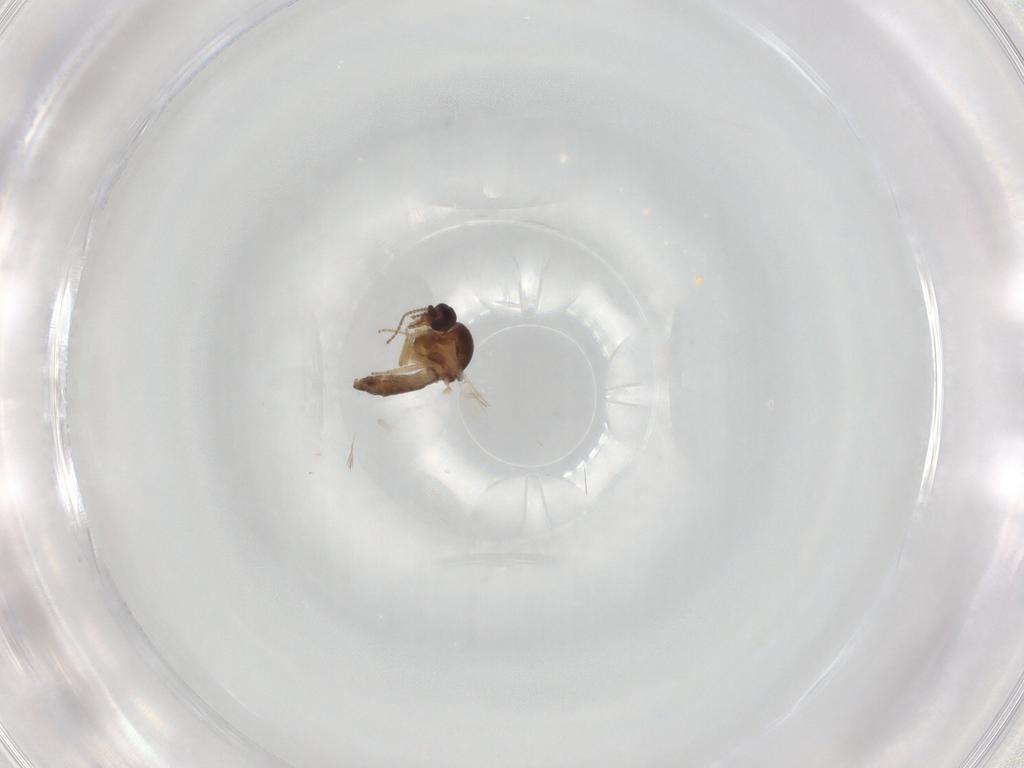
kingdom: Animalia
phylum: Arthropoda
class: Insecta
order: Diptera
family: Ceratopogonidae
